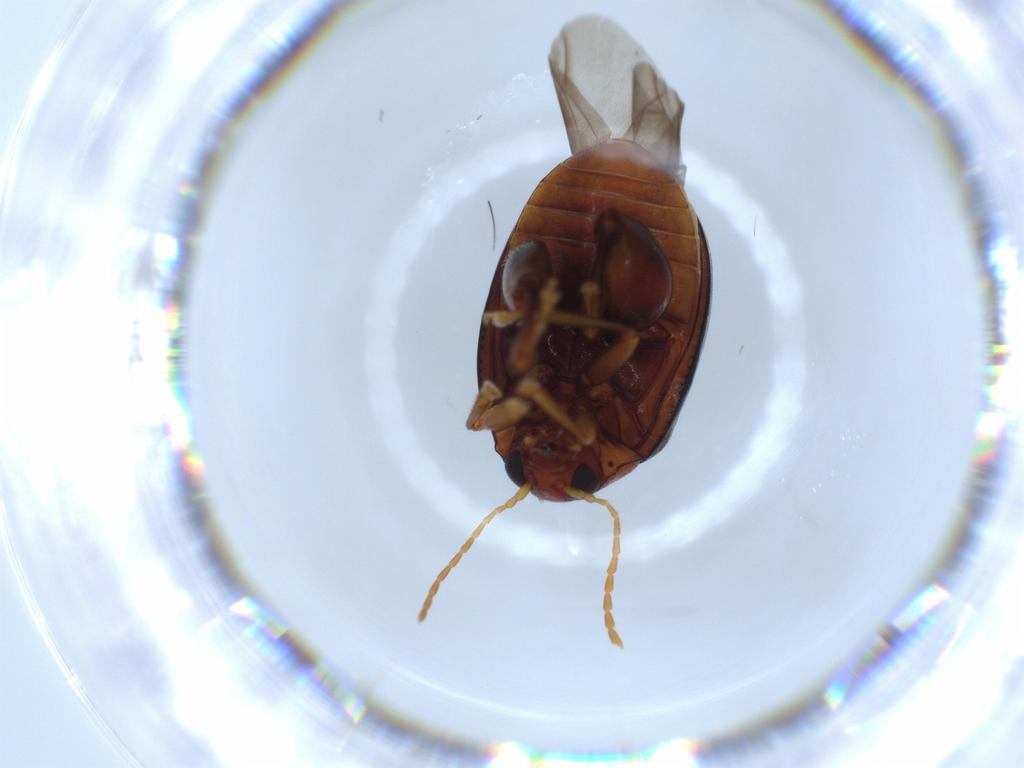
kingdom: Animalia
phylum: Arthropoda
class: Insecta
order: Coleoptera
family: Chrysomelidae
